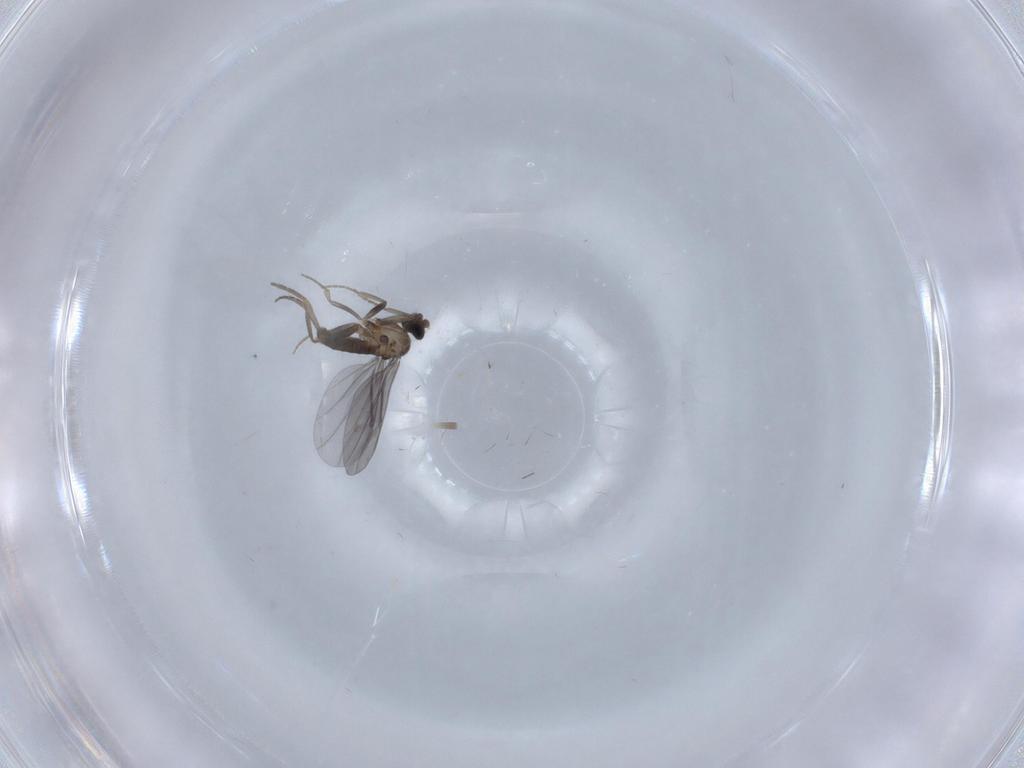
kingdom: Animalia
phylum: Arthropoda
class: Insecta
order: Diptera
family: Chironomidae
